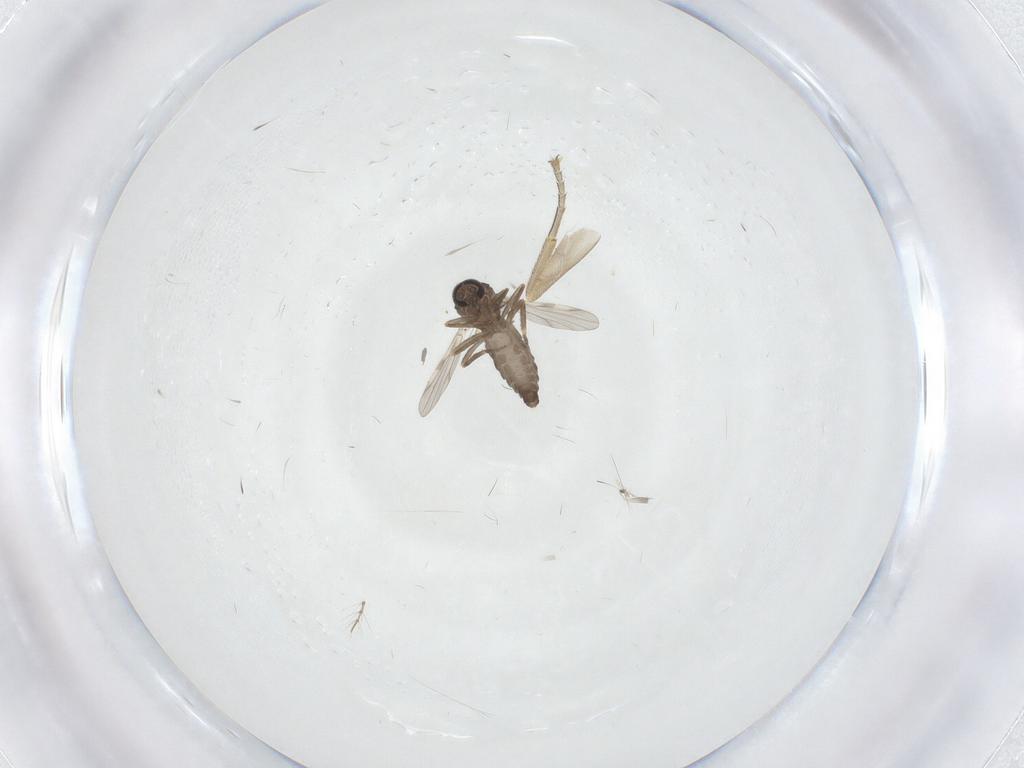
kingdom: Animalia
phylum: Arthropoda
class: Insecta
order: Diptera
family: Ceratopogonidae
